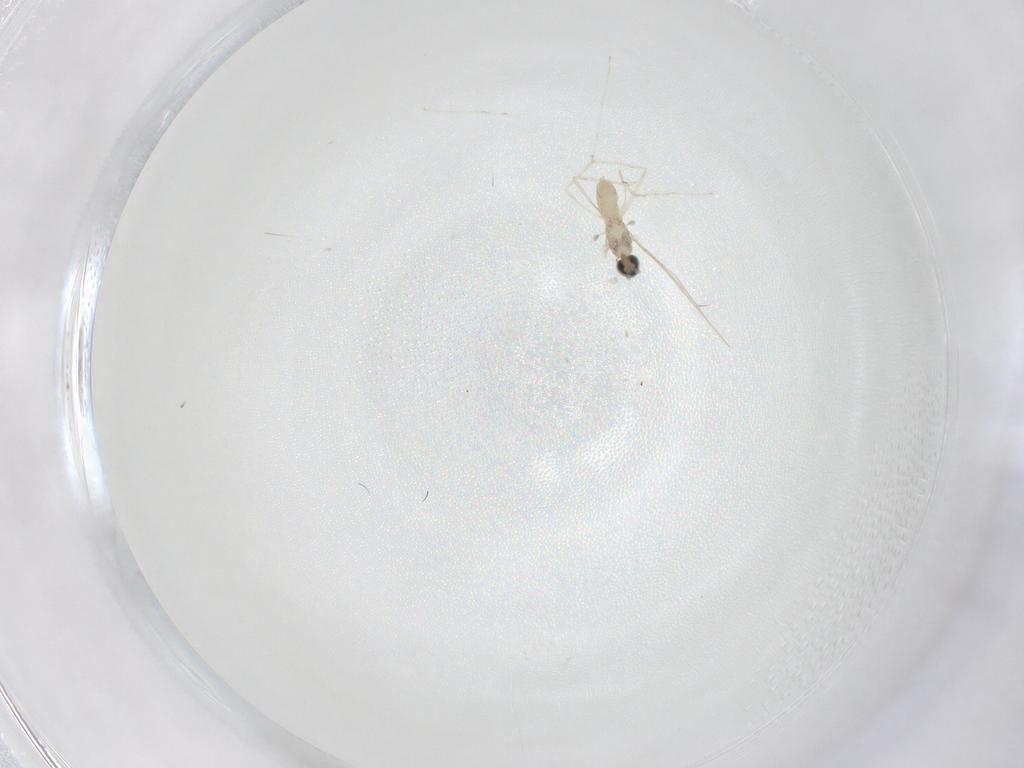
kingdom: Animalia
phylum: Arthropoda
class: Insecta
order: Diptera
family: Cecidomyiidae
